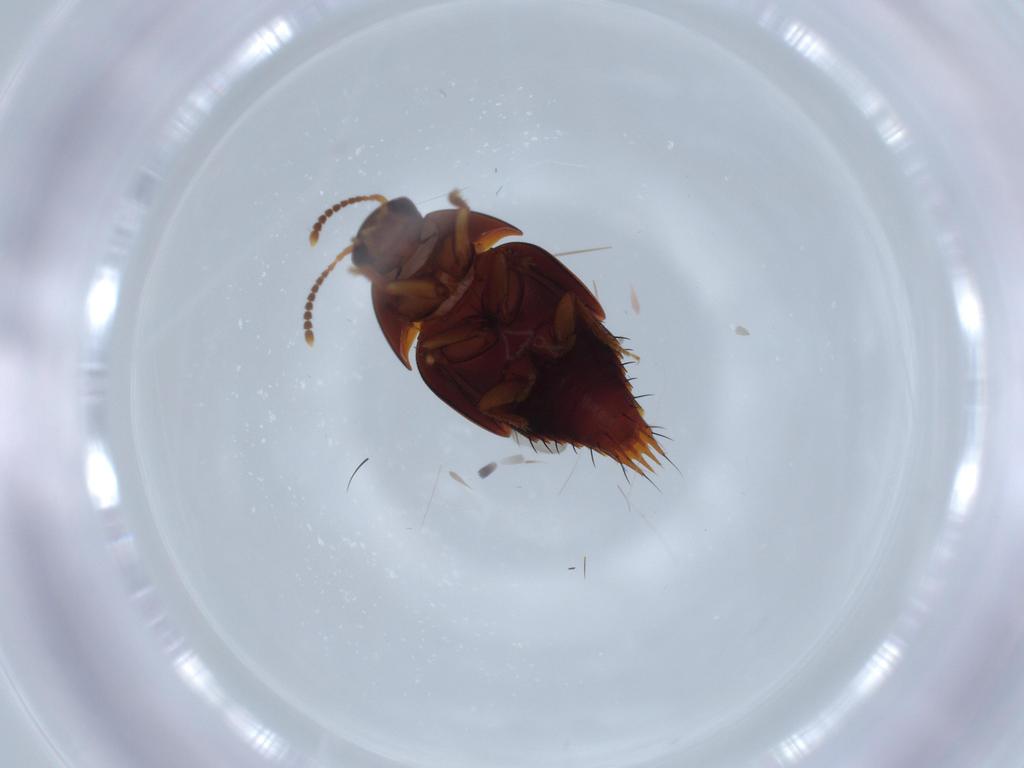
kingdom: Animalia
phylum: Arthropoda
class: Insecta
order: Coleoptera
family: Staphylinidae
